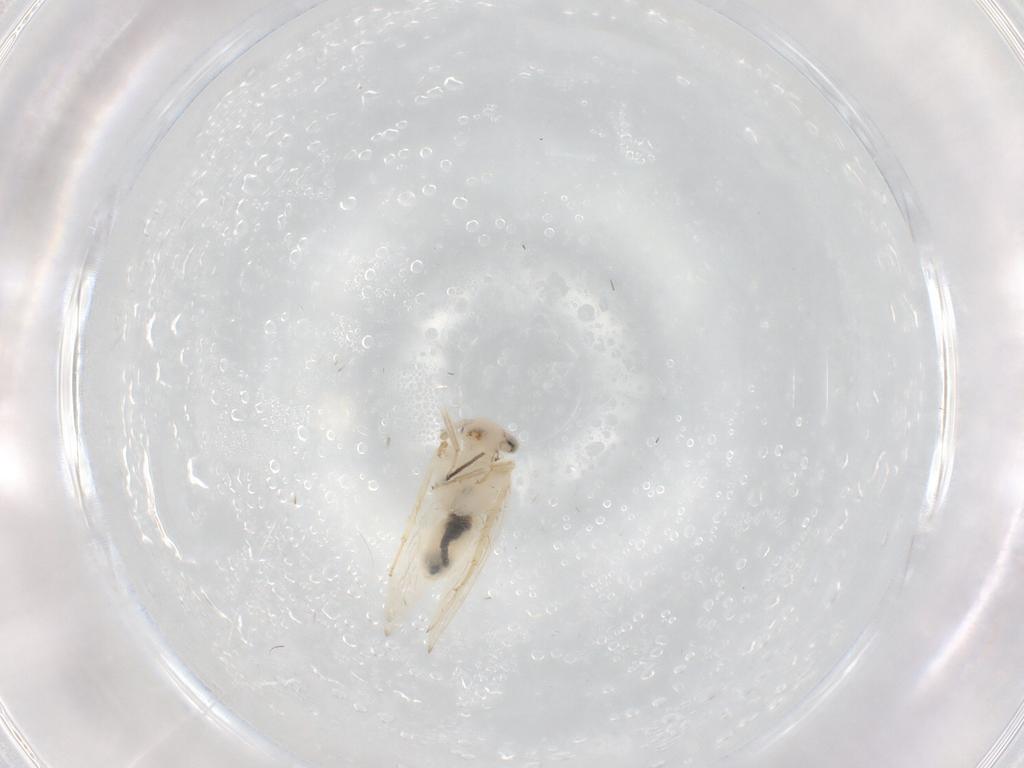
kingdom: Animalia
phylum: Arthropoda
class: Insecta
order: Psocodea
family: Lepidopsocidae
